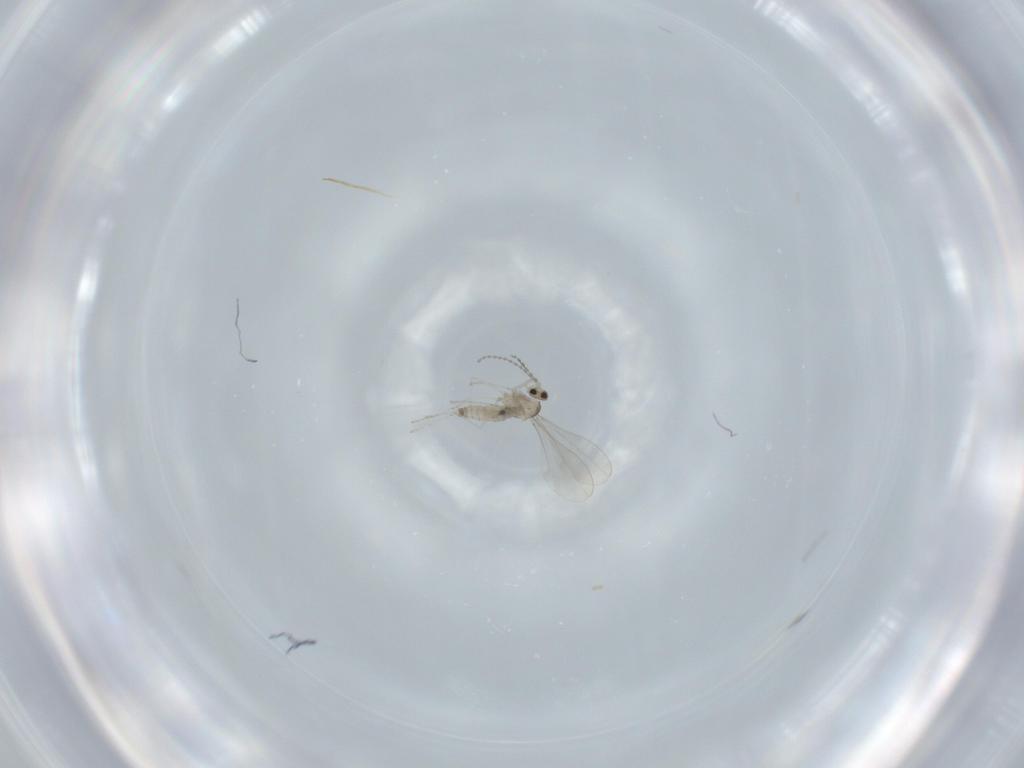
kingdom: Animalia
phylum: Arthropoda
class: Insecta
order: Diptera
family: Cecidomyiidae
